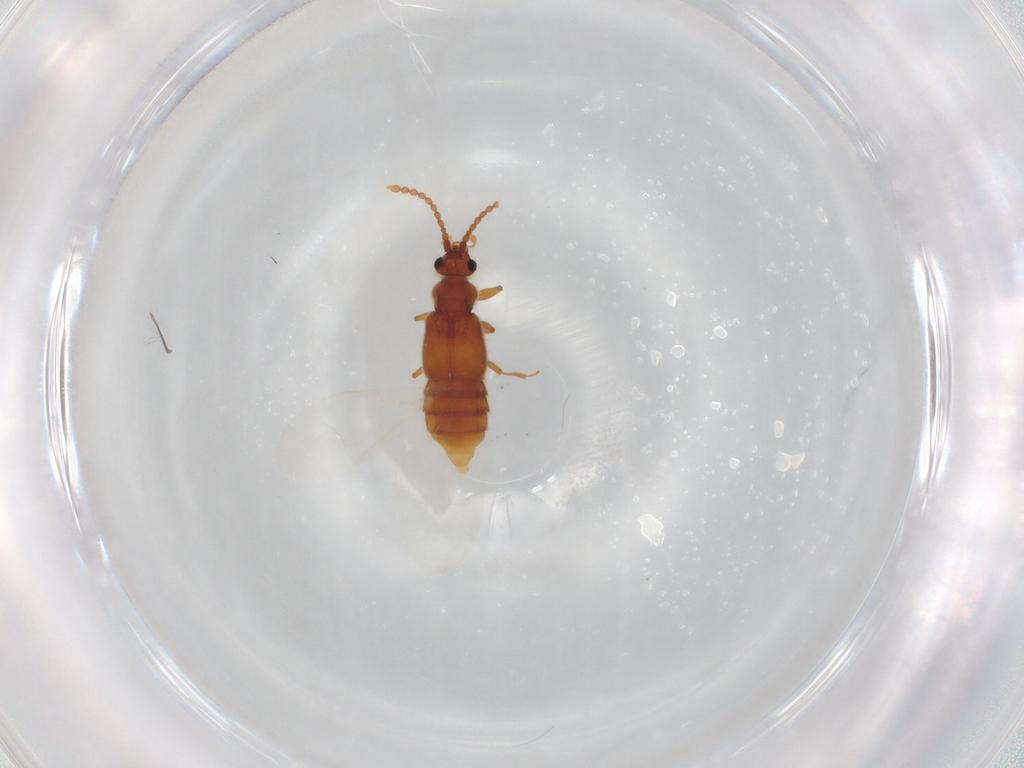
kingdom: Animalia
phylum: Arthropoda
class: Insecta
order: Coleoptera
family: Staphylinidae
